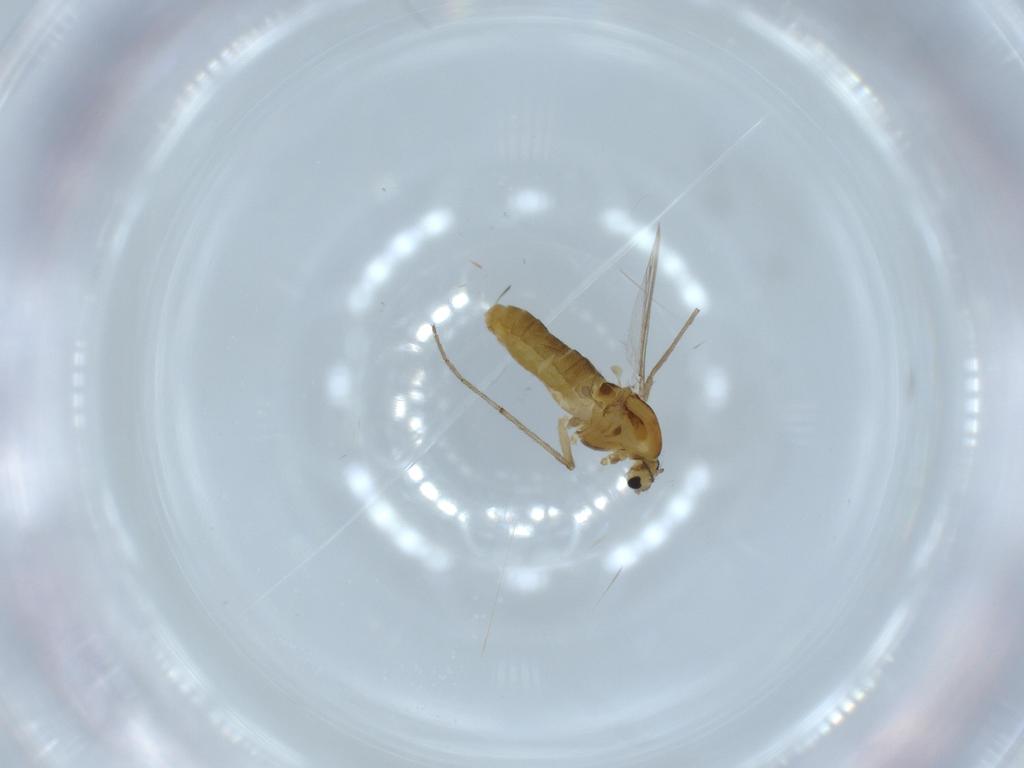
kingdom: Animalia
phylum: Arthropoda
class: Insecta
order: Diptera
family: Chironomidae
